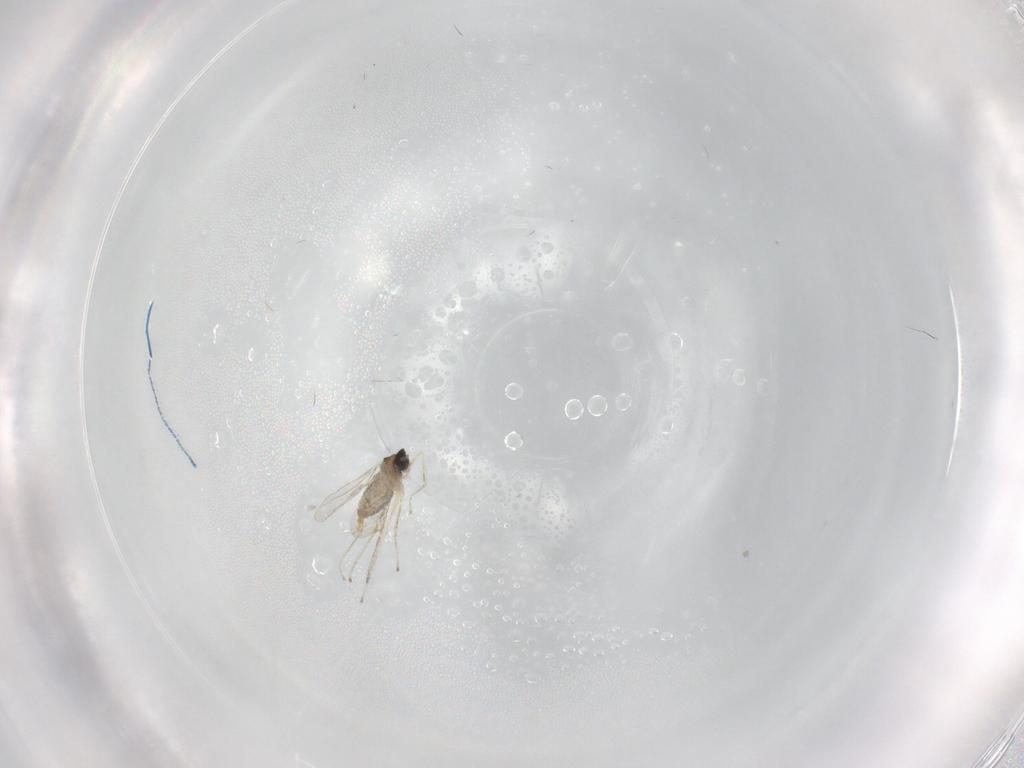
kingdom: Animalia
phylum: Arthropoda
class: Insecta
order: Diptera
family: Cecidomyiidae
